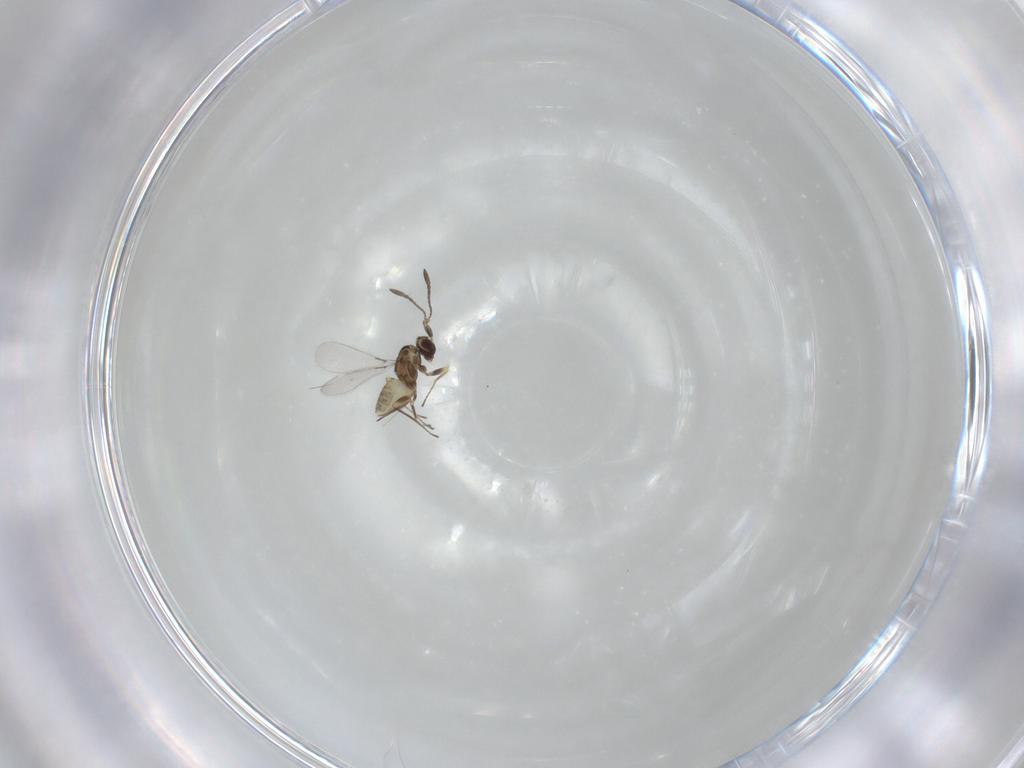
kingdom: Animalia
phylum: Arthropoda
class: Insecta
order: Hymenoptera
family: Mymaridae
